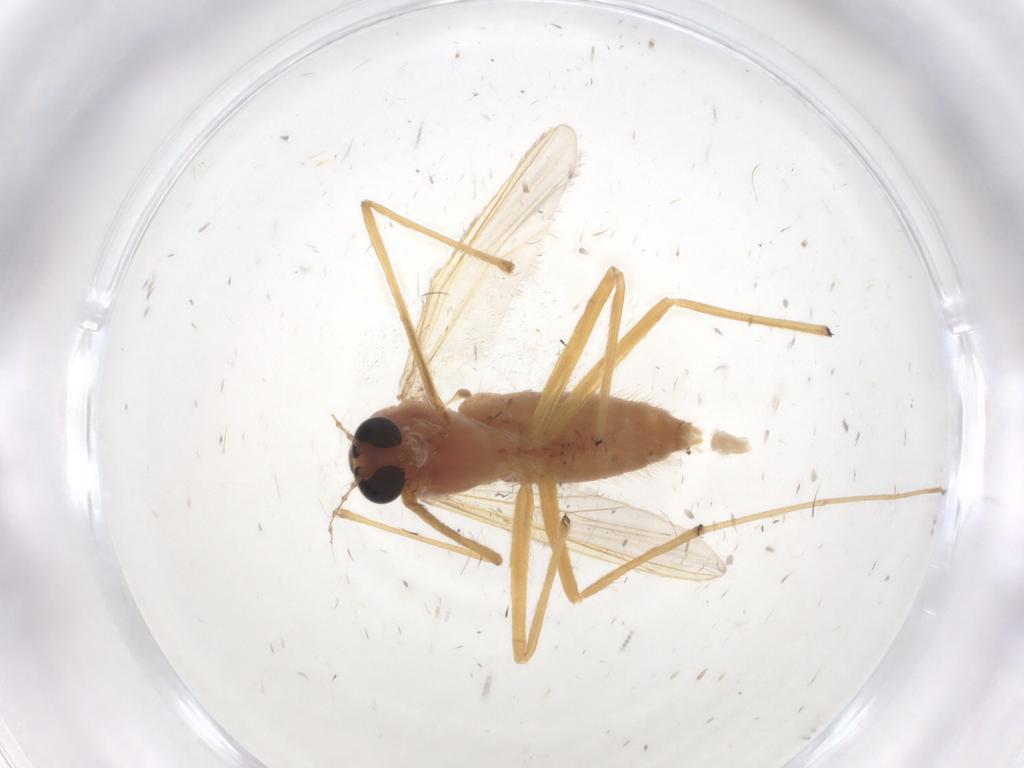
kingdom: Animalia
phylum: Arthropoda
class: Insecta
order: Diptera
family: Chironomidae
